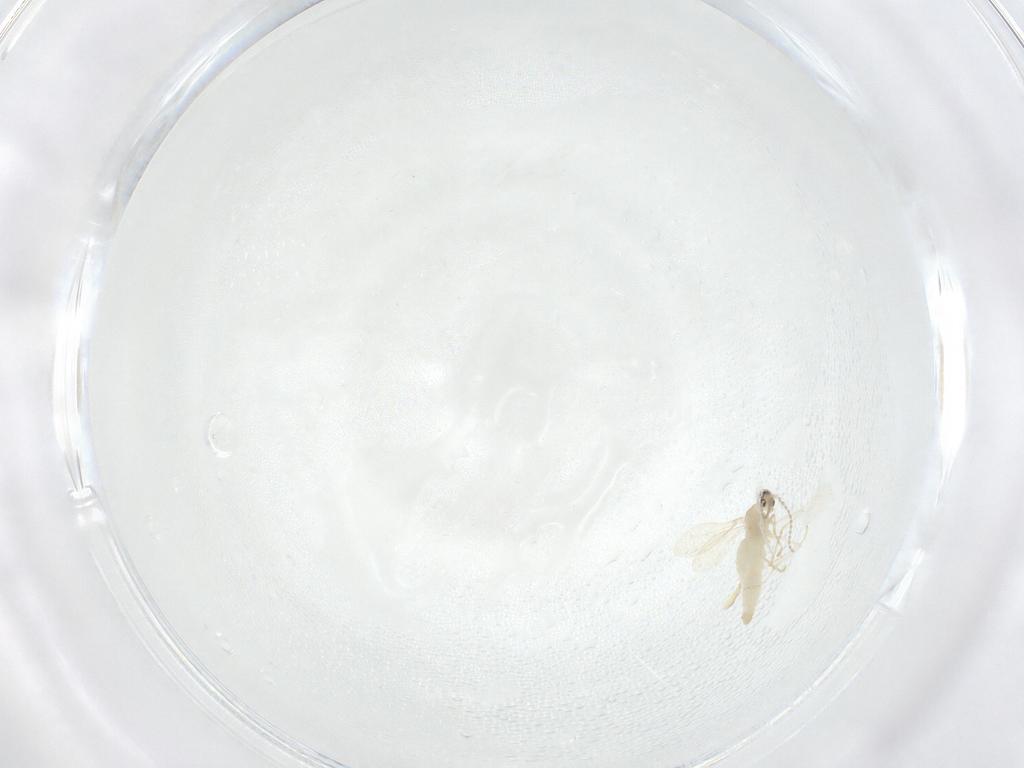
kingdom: Animalia
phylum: Arthropoda
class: Insecta
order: Diptera
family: Cecidomyiidae
